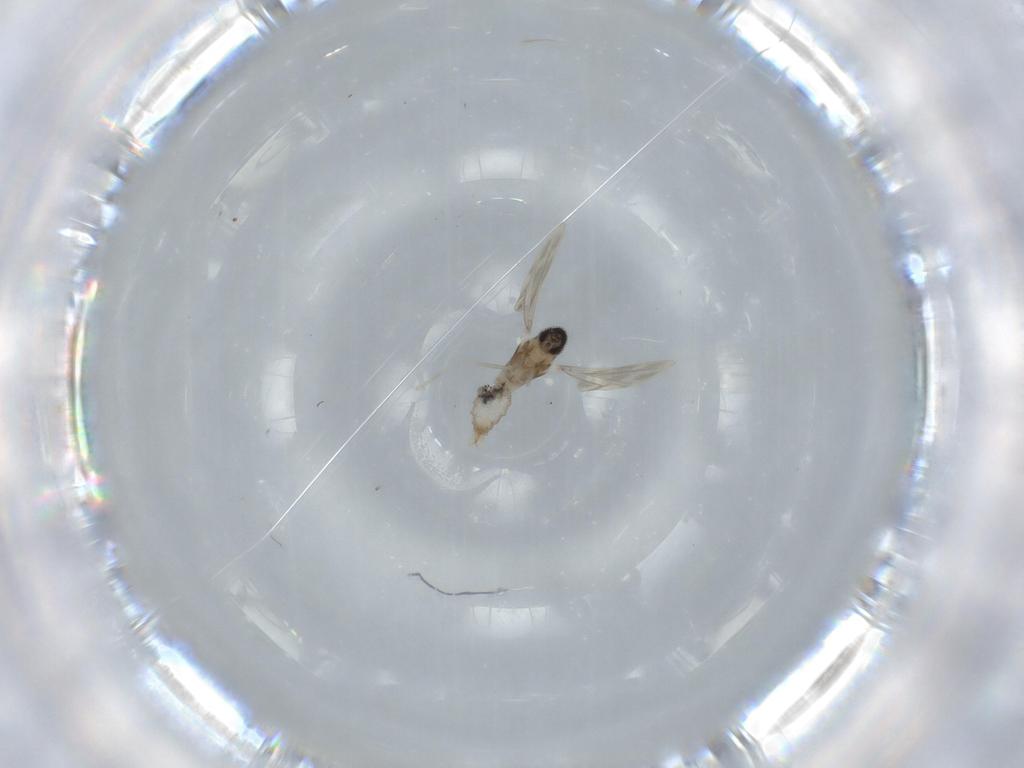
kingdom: Animalia
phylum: Arthropoda
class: Insecta
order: Diptera
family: Cecidomyiidae
